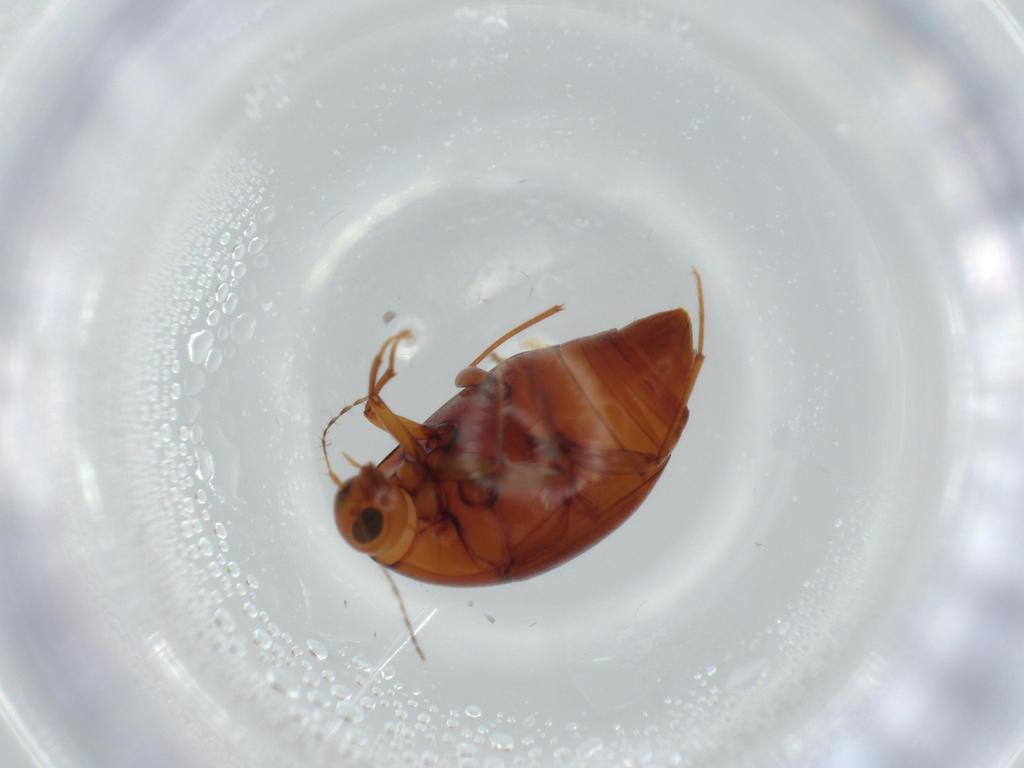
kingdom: Animalia
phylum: Arthropoda
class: Insecta
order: Coleoptera
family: Staphylinidae
